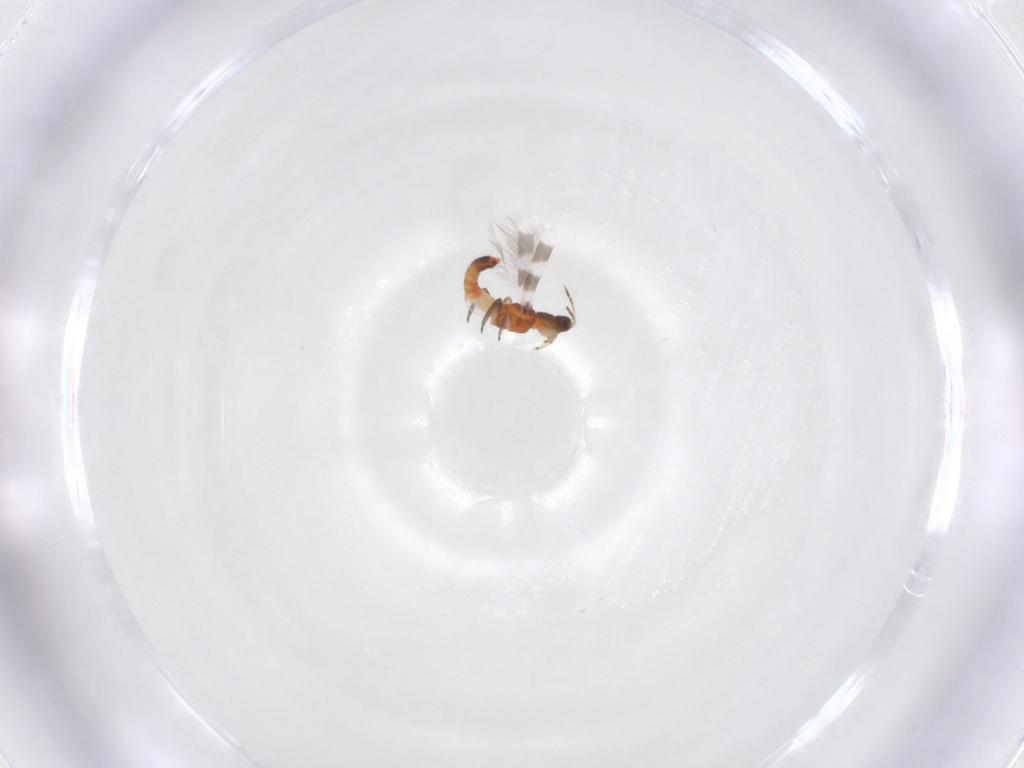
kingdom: Animalia
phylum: Arthropoda
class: Insecta
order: Thysanoptera
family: Aeolothripidae
